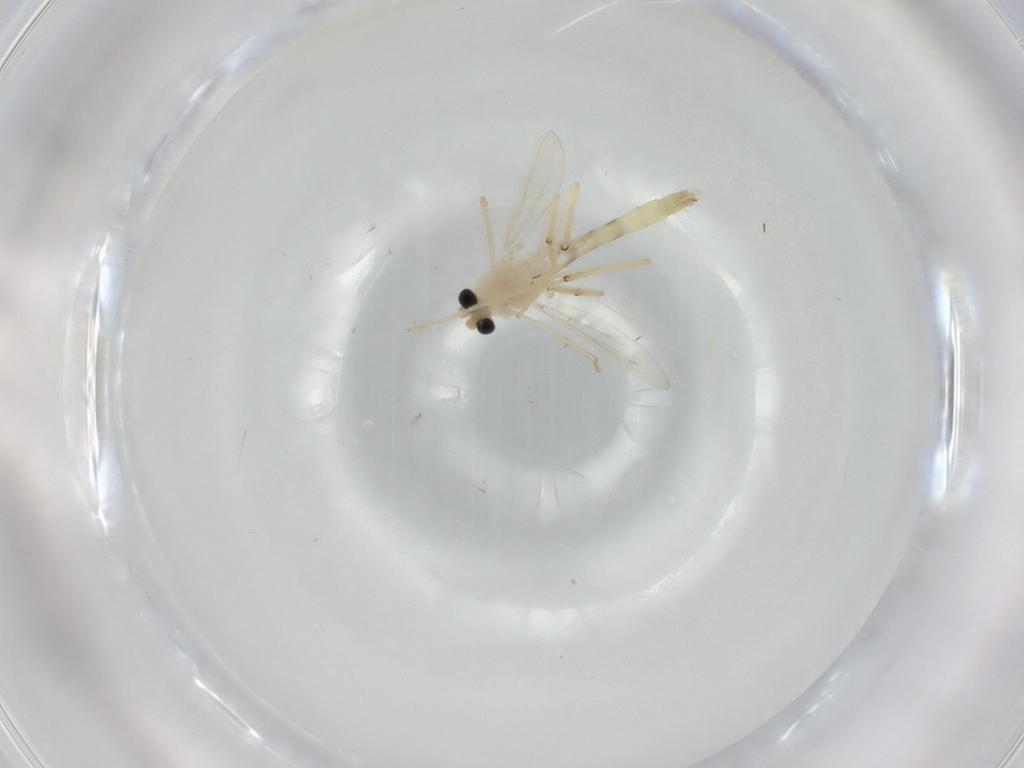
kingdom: Animalia
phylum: Arthropoda
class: Insecta
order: Diptera
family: Chironomidae
